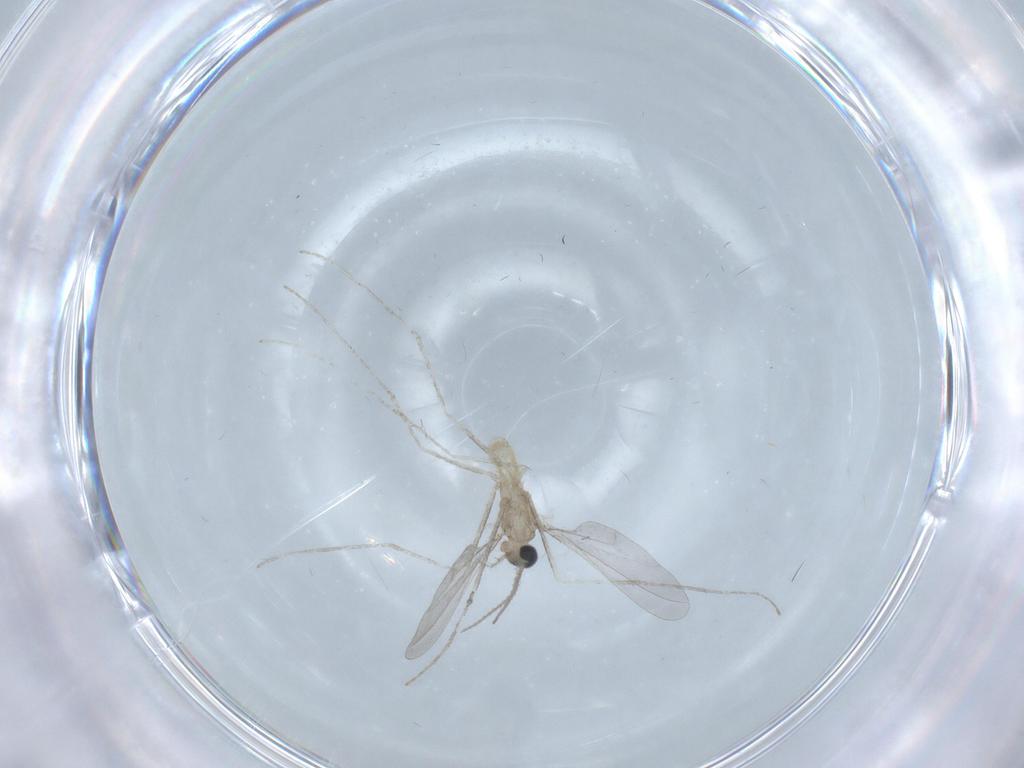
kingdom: Animalia
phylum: Arthropoda
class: Insecta
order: Diptera
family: Cecidomyiidae
